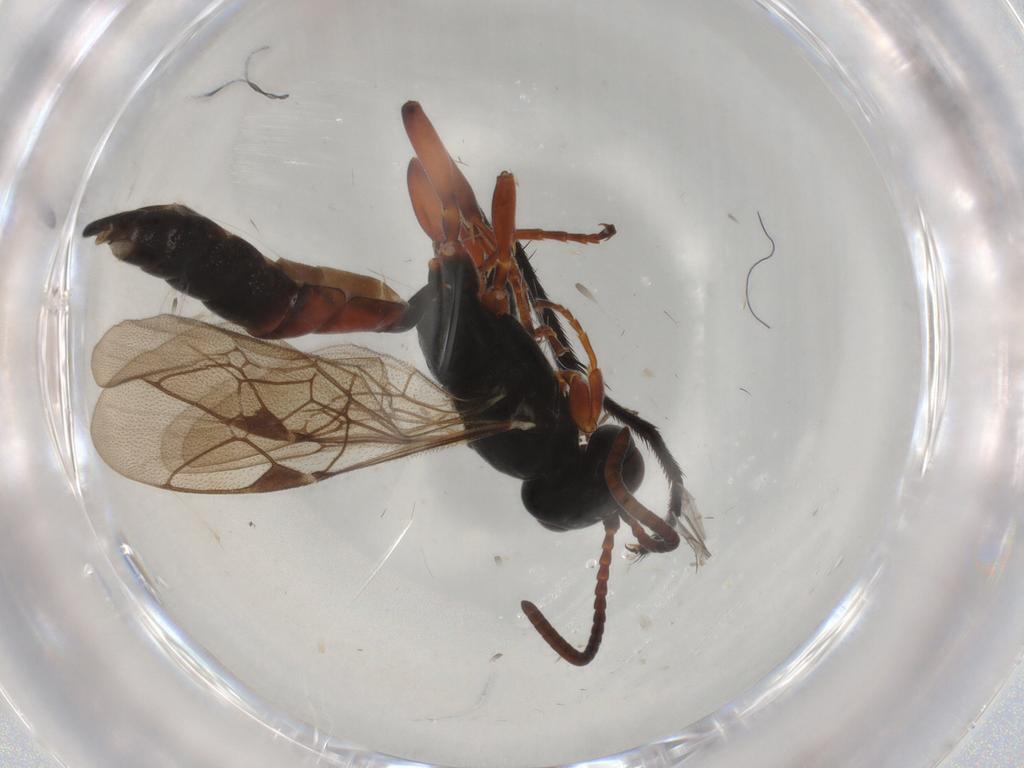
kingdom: Animalia
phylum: Arthropoda
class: Insecta
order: Hymenoptera
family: Ichneumonidae
